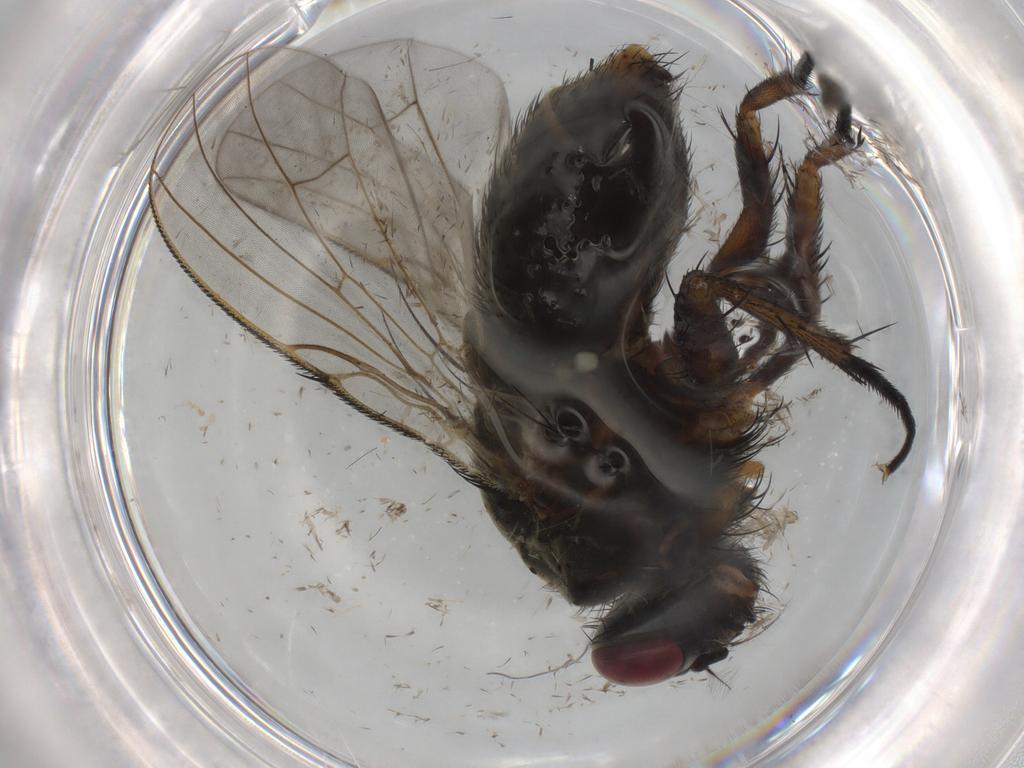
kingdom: Animalia
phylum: Arthropoda
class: Insecta
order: Diptera
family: Muscidae
